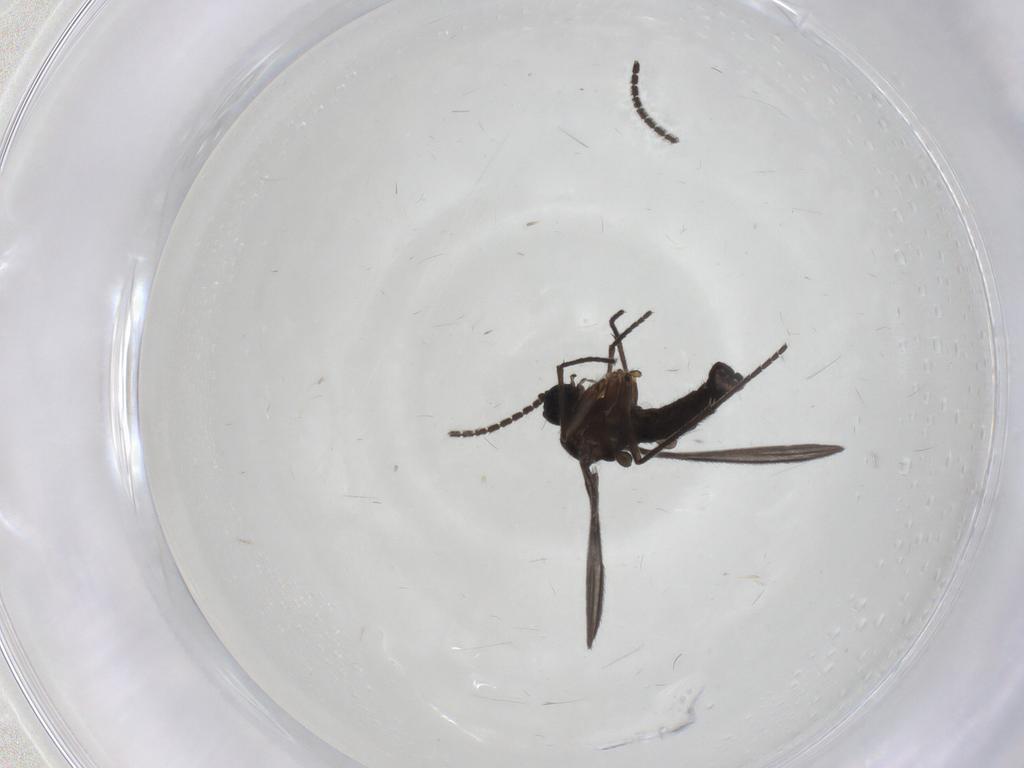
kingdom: Animalia
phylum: Arthropoda
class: Insecta
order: Diptera
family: Sciaridae
